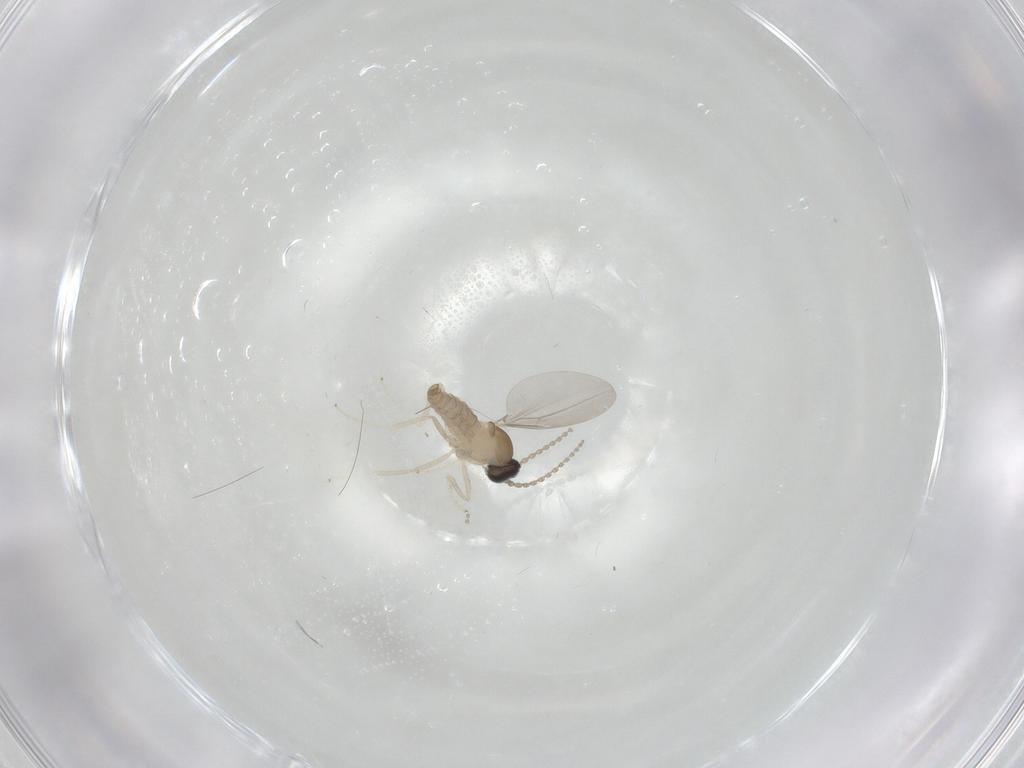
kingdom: Animalia
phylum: Arthropoda
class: Insecta
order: Diptera
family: Cecidomyiidae
